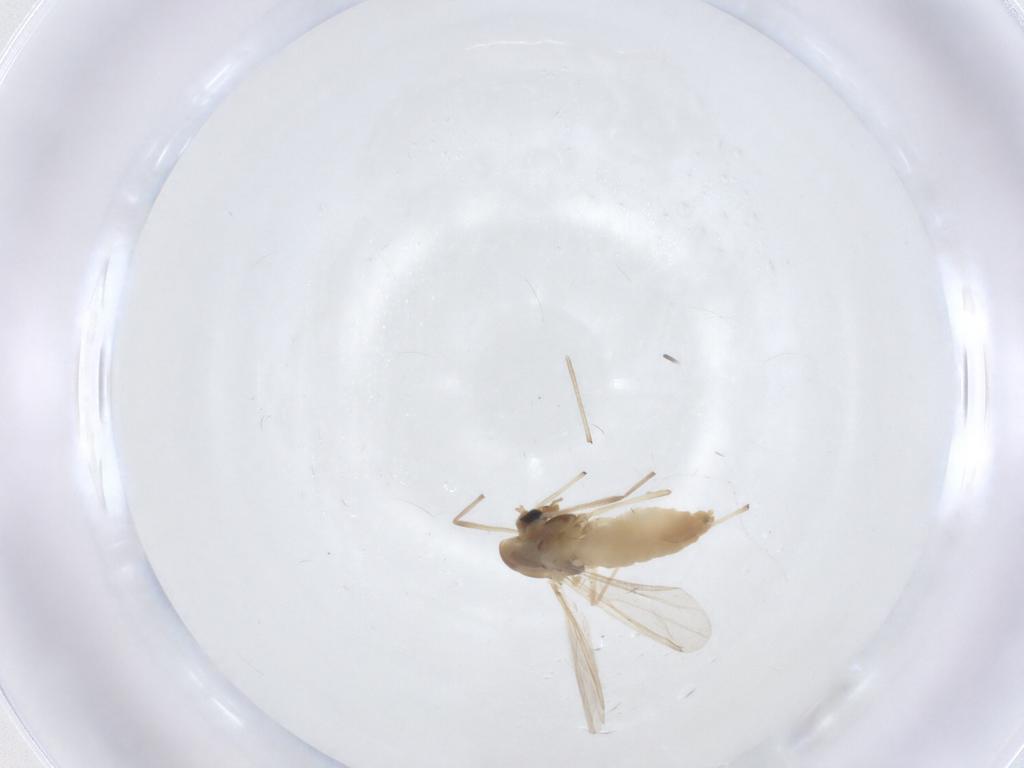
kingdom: Animalia
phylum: Arthropoda
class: Insecta
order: Diptera
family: Chironomidae
